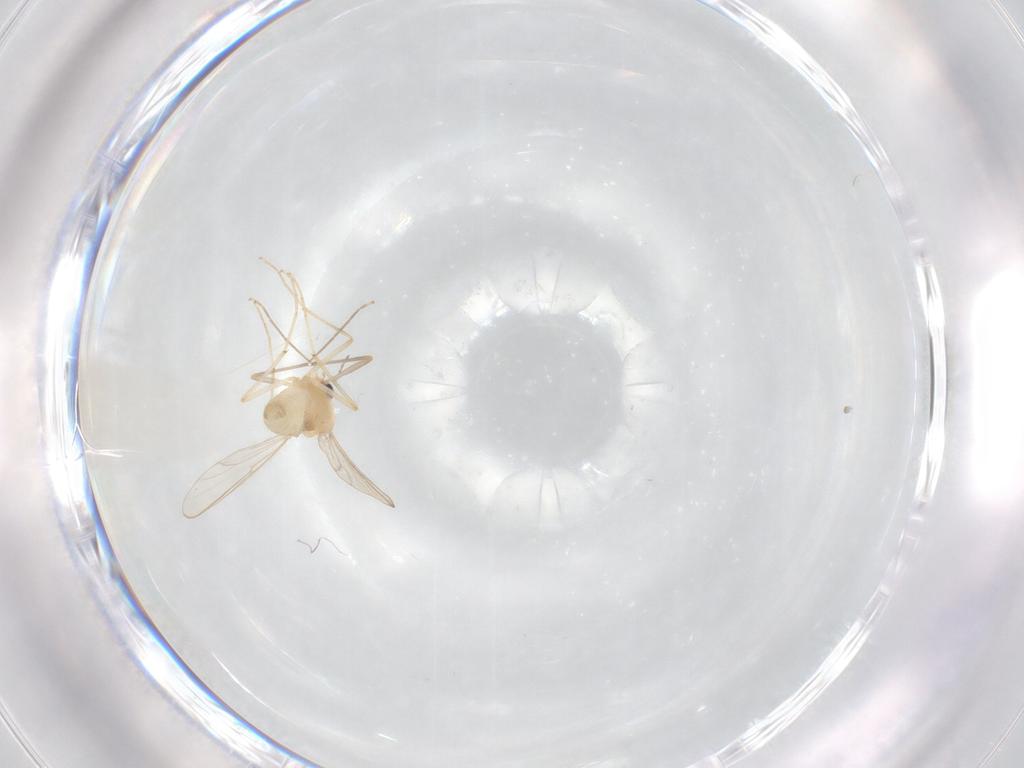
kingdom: Animalia
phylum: Arthropoda
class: Insecta
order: Diptera
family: Chironomidae
